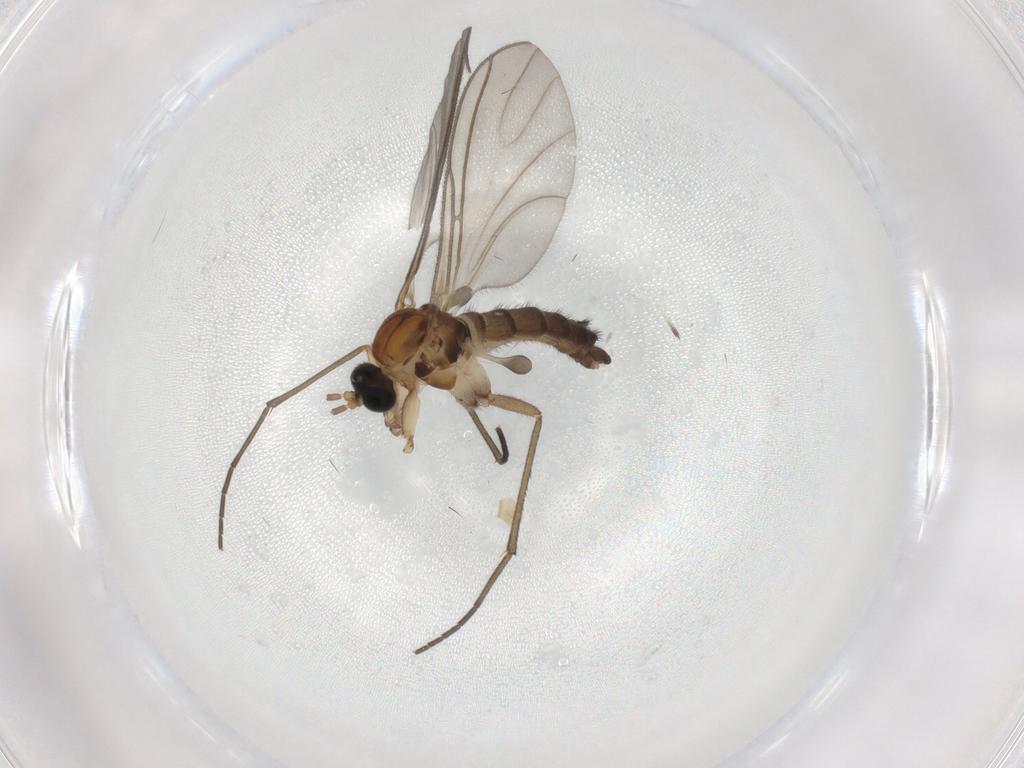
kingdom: Animalia
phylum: Arthropoda
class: Insecta
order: Diptera
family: Sciaridae
